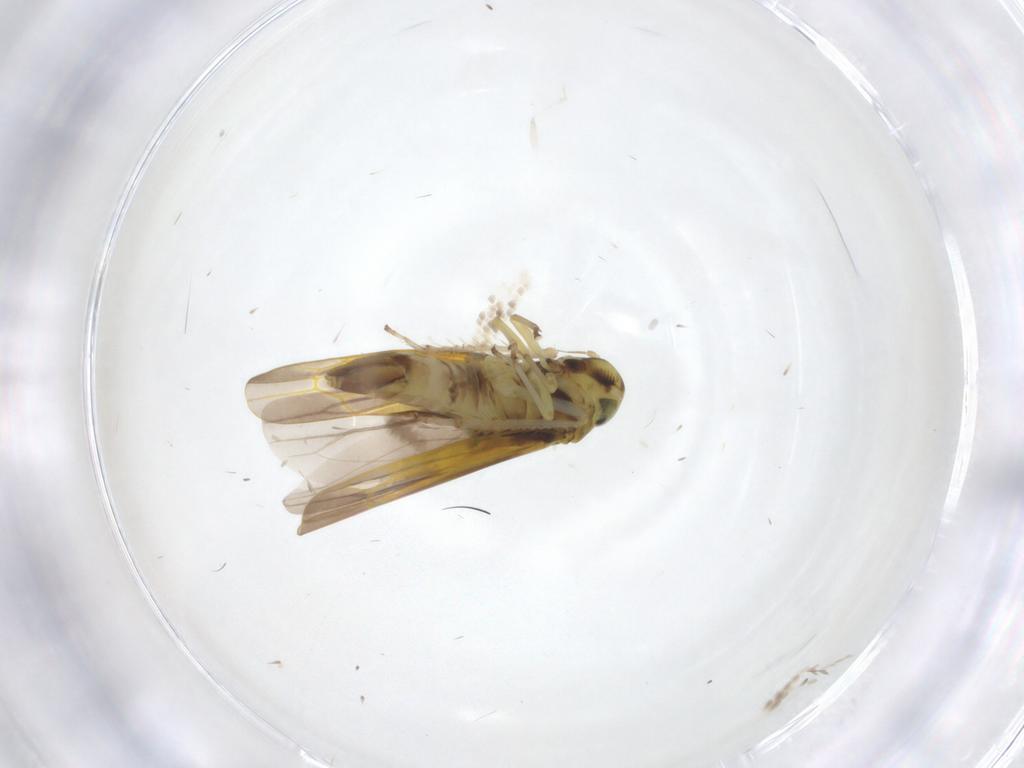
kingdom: Animalia
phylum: Arthropoda
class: Insecta
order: Hemiptera
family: Cicadellidae
